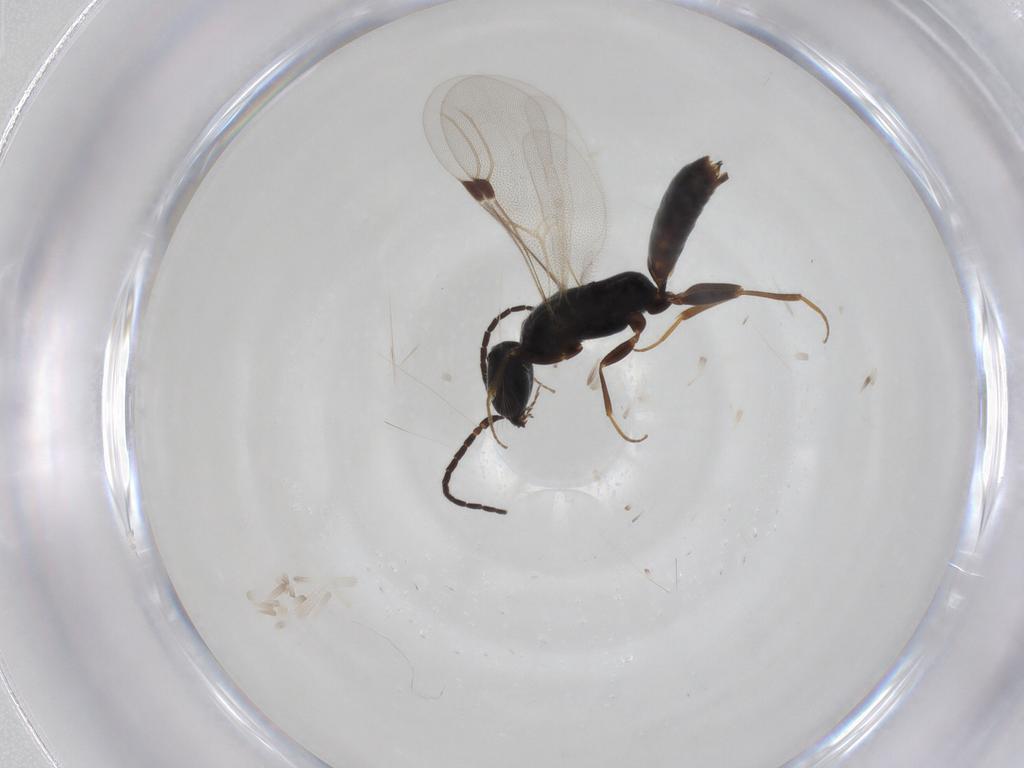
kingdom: Animalia
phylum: Arthropoda
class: Insecta
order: Hymenoptera
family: Bethylidae
